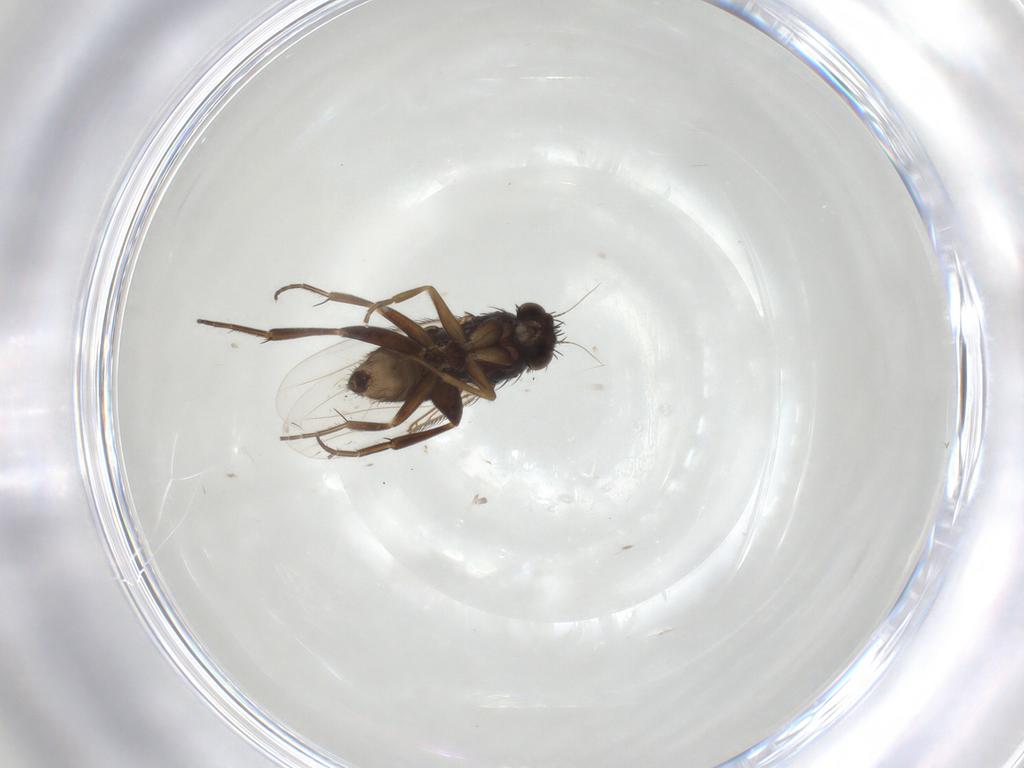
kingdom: Animalia
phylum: Arthropoda
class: Insecta
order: Diptera
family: Phoridae
